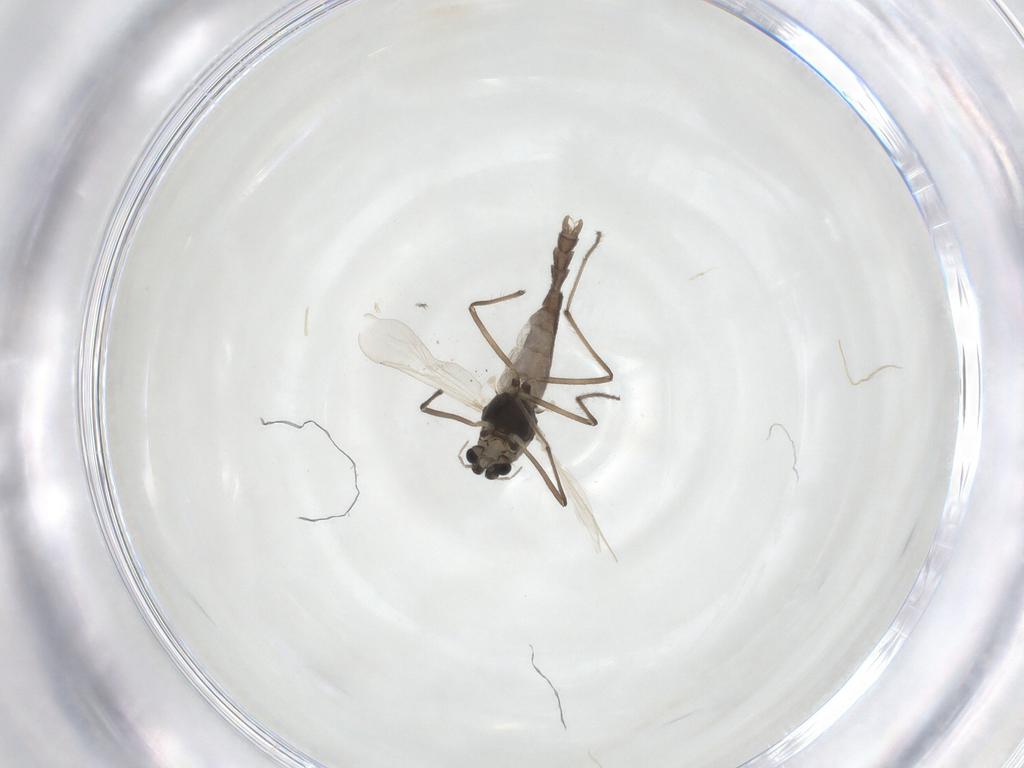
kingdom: Animalia
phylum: Arthropoda
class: Insecta
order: Diptera
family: Chironomidae
